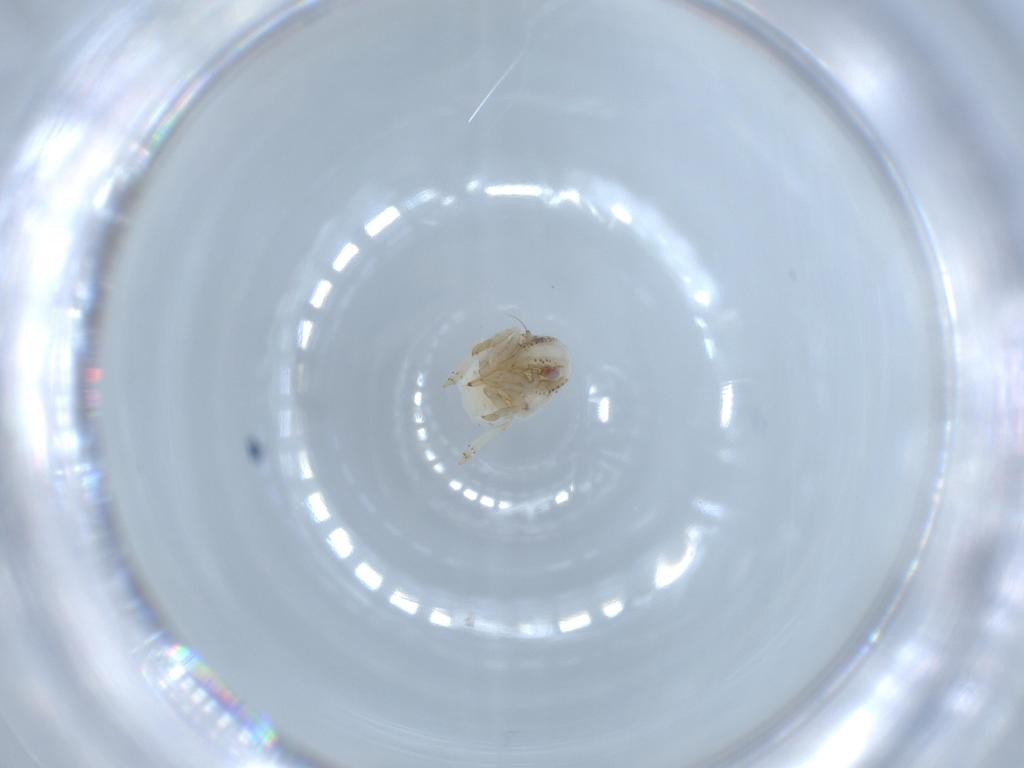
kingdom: Animalia
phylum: Arthropoda
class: Insecta
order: Hemiptera
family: Acanaloniidae
